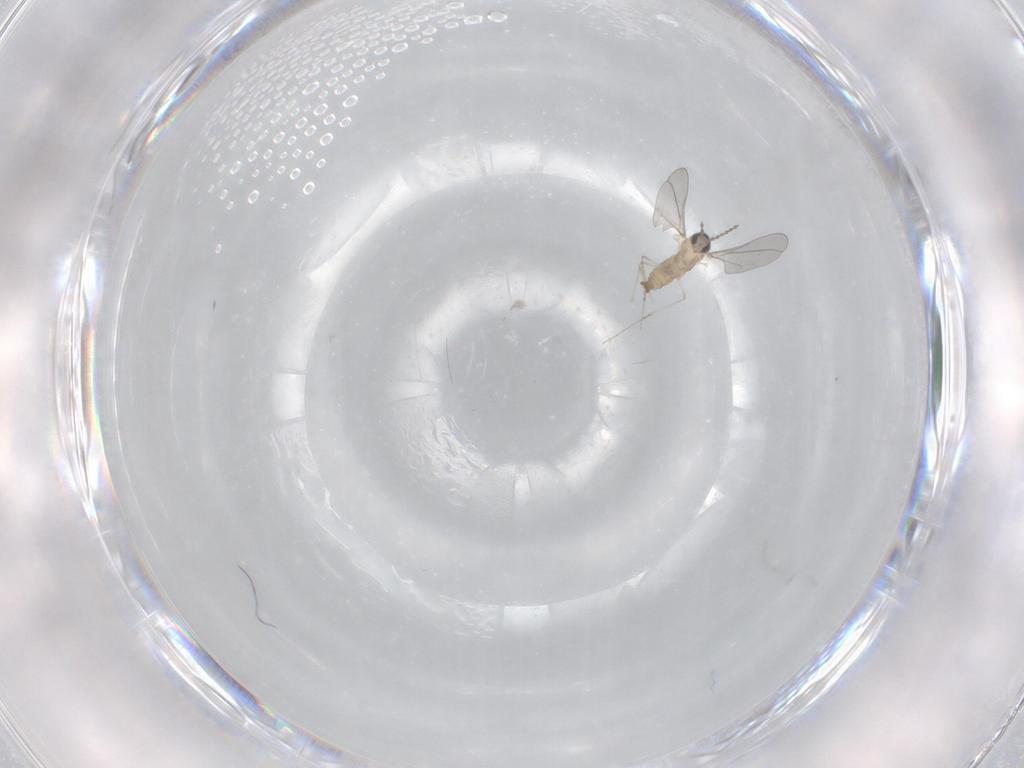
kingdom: Animalia
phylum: Arthropoda
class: Insecta
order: Diptera
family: Cecidomyiidae
